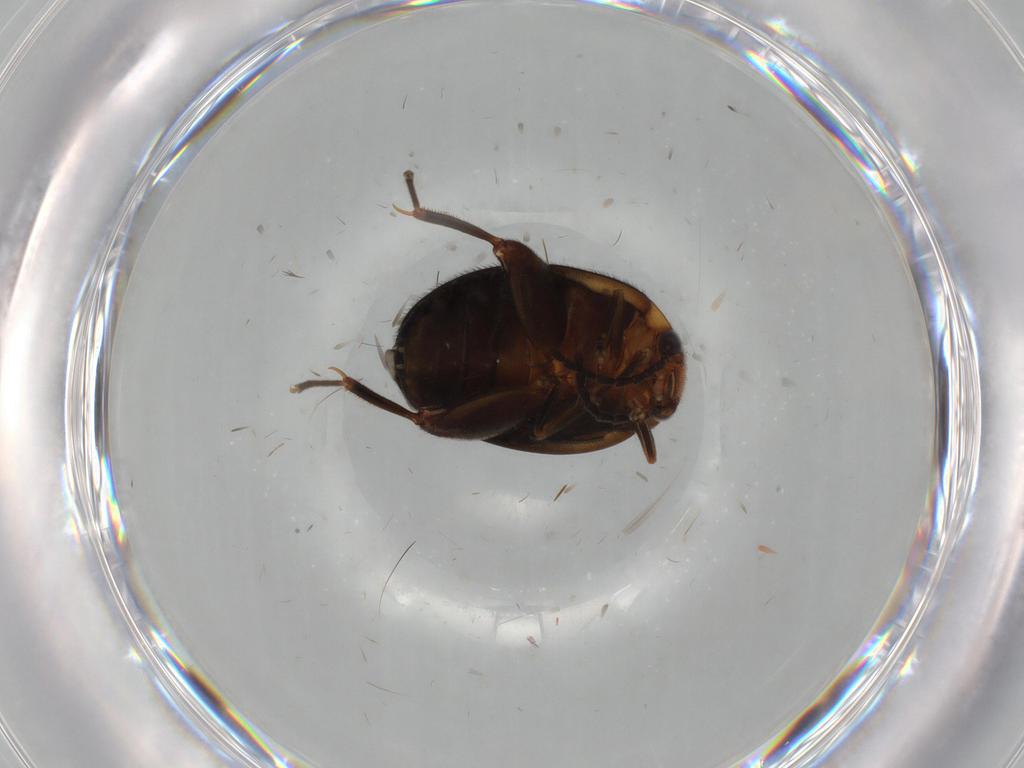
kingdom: Animalia
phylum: Arthropoda
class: Insecta
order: Coleoptera
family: Scirtidae
